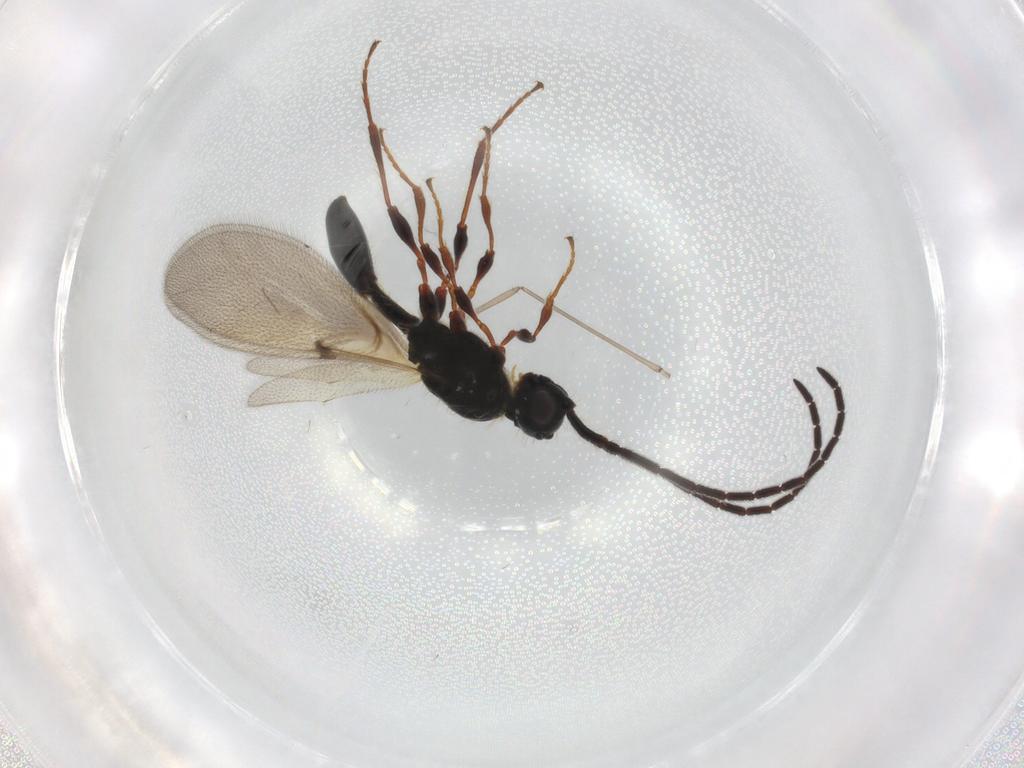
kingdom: Animalia
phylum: Arthropoda
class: Insecta
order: Hymenoptera
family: Diapriidae
